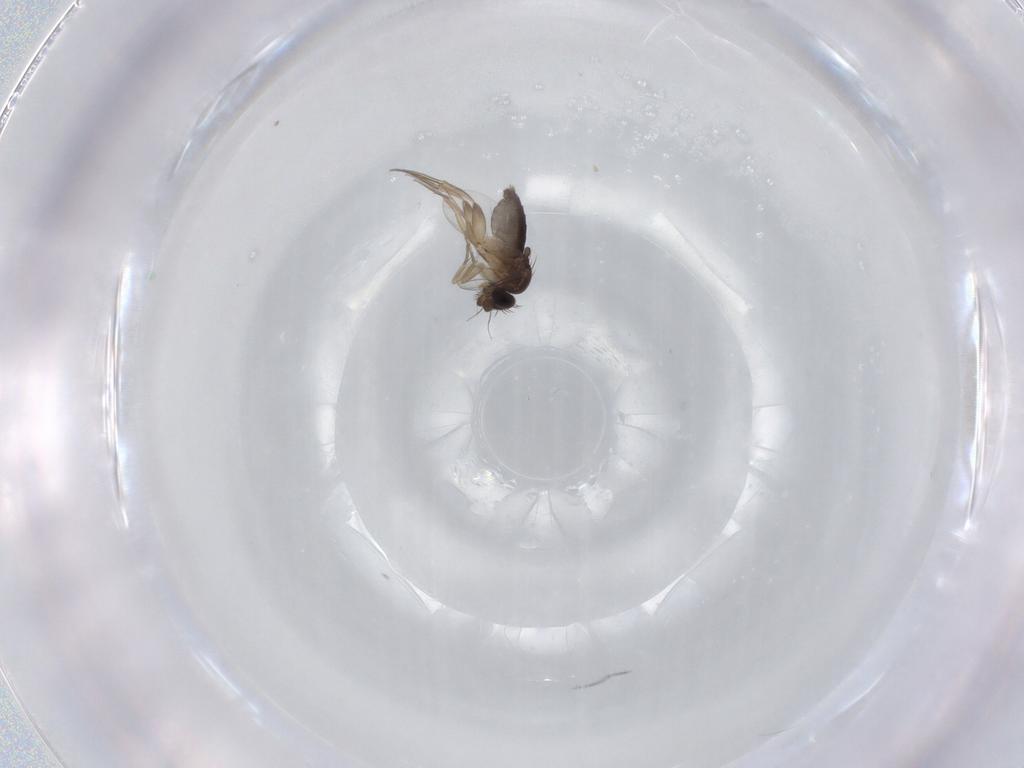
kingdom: Animalia
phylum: Arthropoda
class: Insecta
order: Diptera
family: Phoridae
